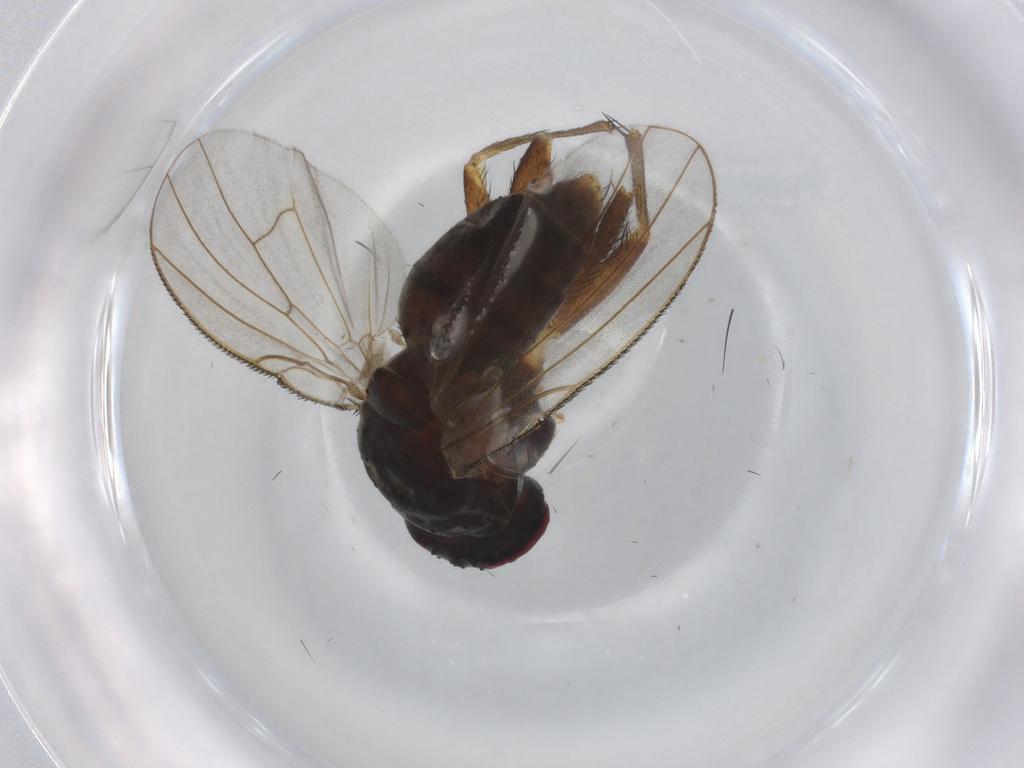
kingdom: Animalia
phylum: Arthropoda
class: Insecta
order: Diptera
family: Muscidae
